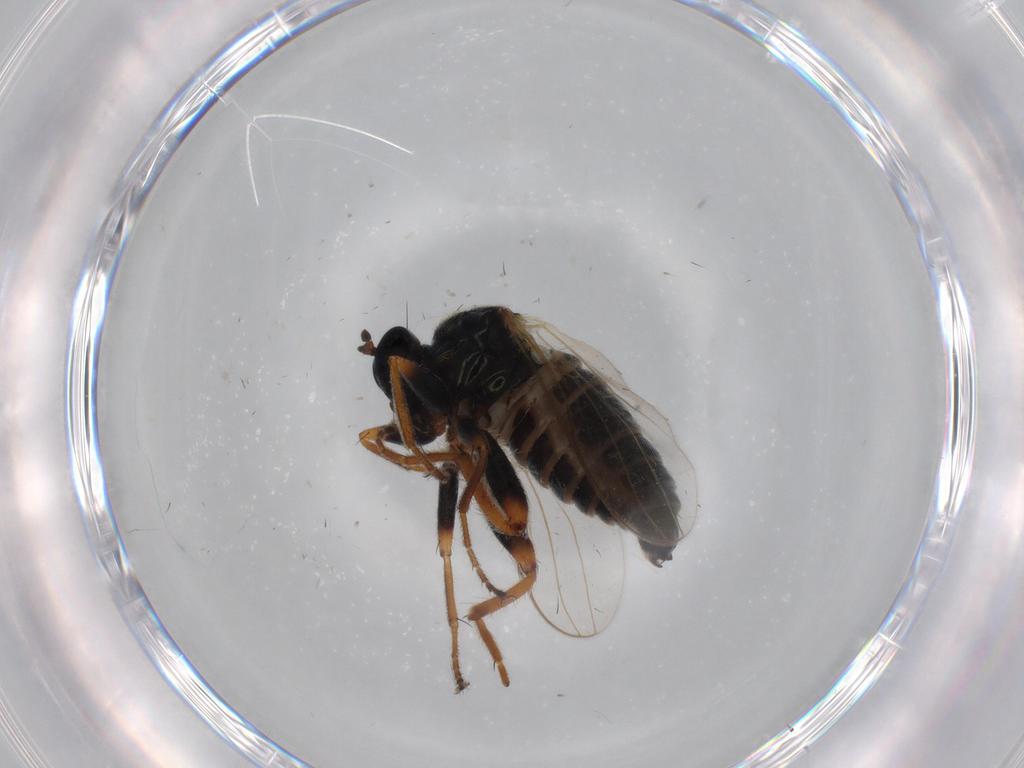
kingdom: Animalia
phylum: Arthropoda
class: Insecta
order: Diptera
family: Hybotidae
